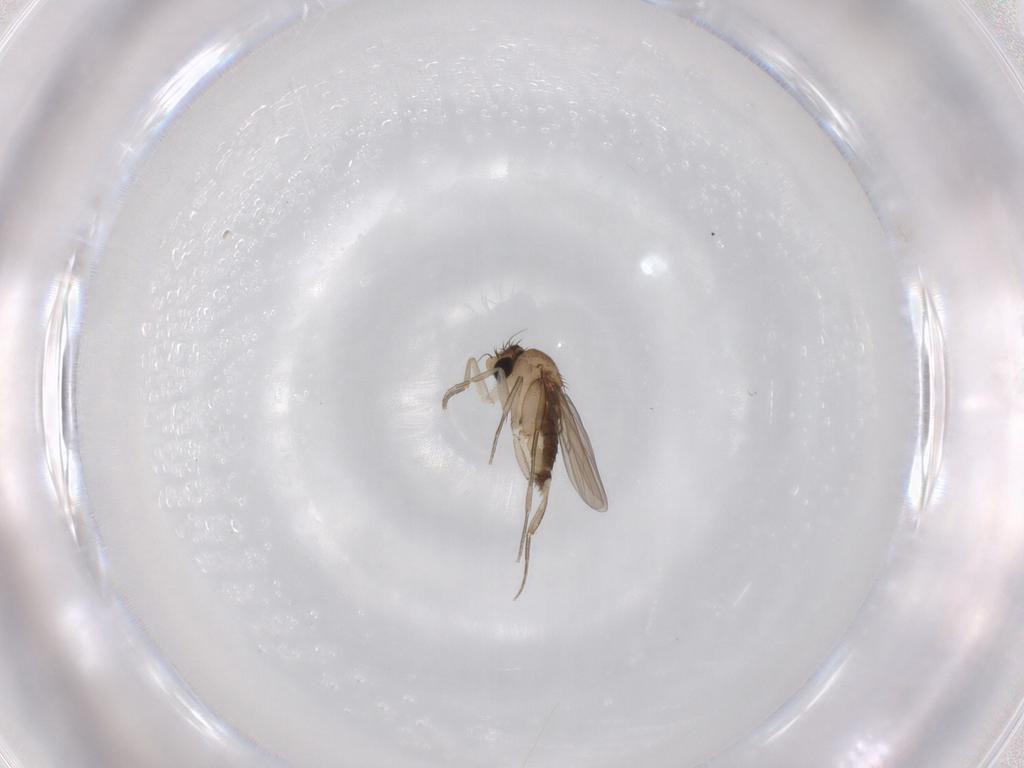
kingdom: Animalia
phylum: Arthropoda
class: Insecta
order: Diptera
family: Phoridae
